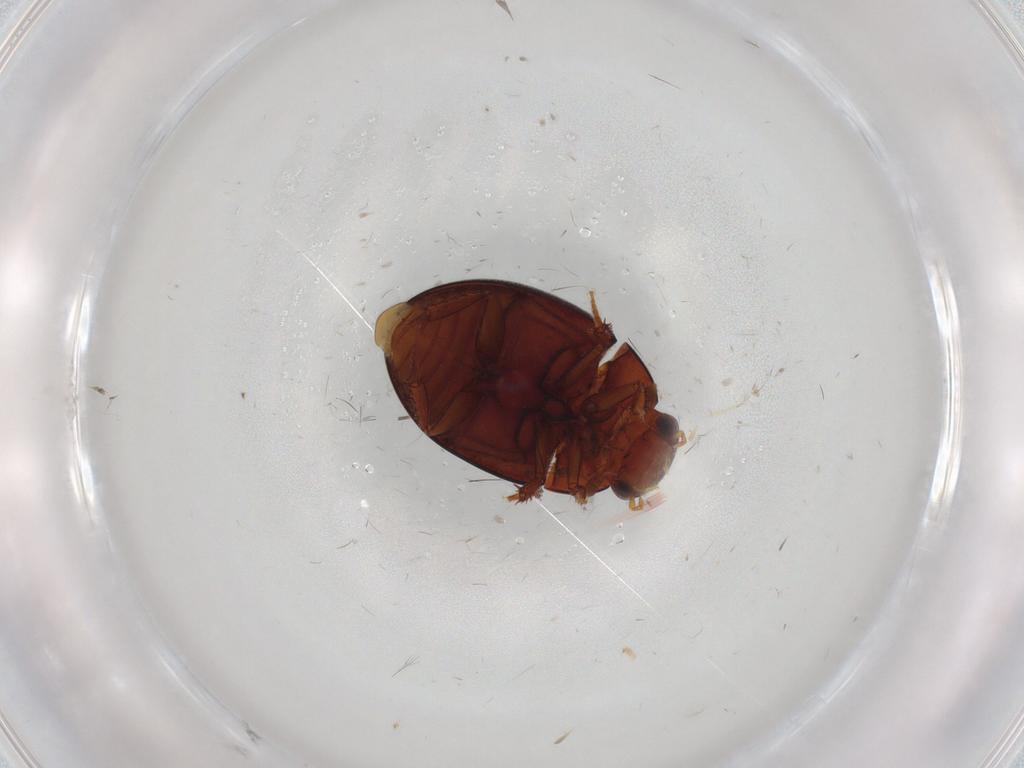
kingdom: Animalia
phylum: Arthropoda
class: Insecta
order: Coleoptera
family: Hydrophilidae
